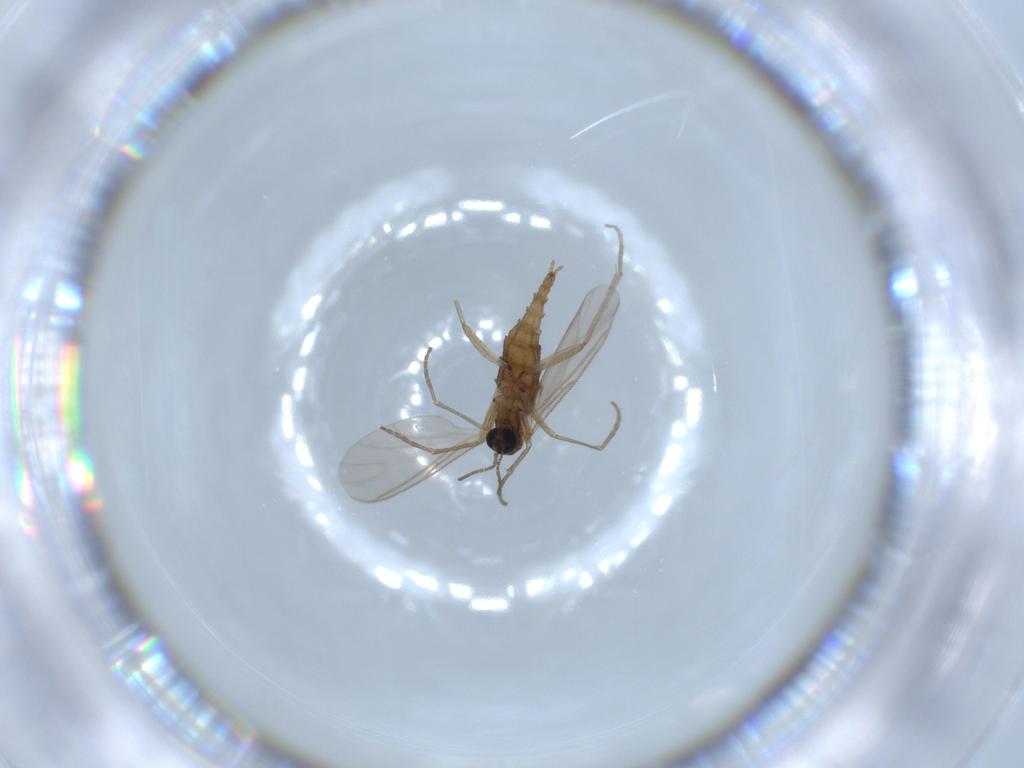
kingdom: Animalia
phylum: Arthropoda
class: Insecta
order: Diptera
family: Sciaridae
